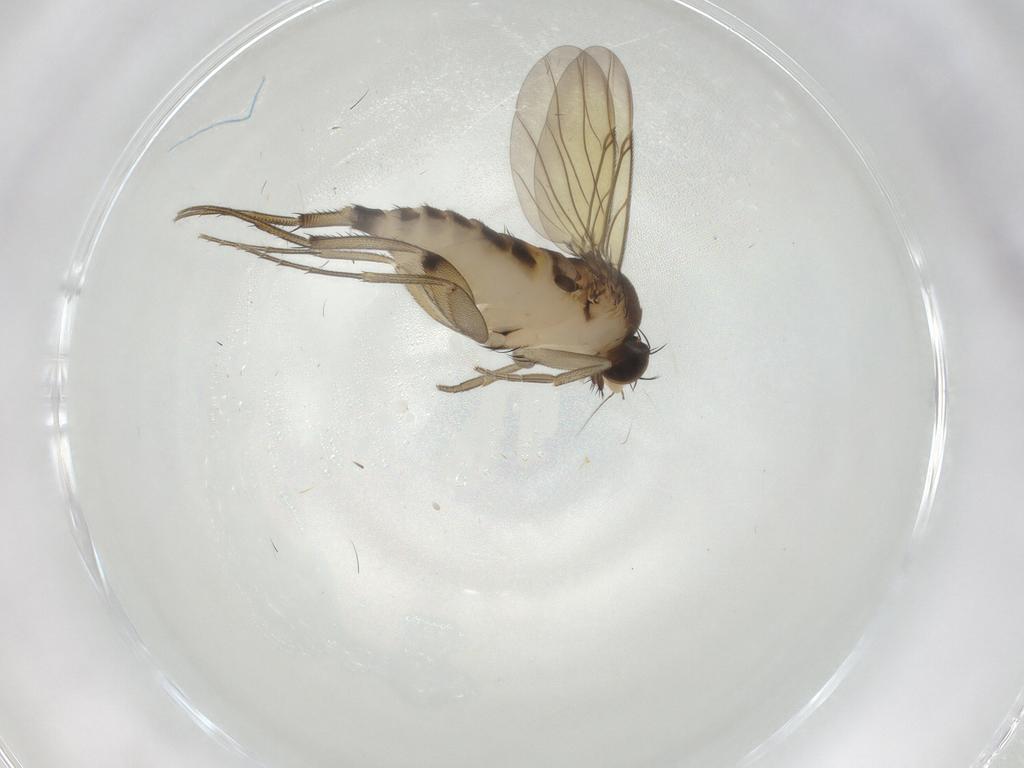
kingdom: Animalia
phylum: Arthropoda
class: Insecta
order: Diptera
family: Phoridae
